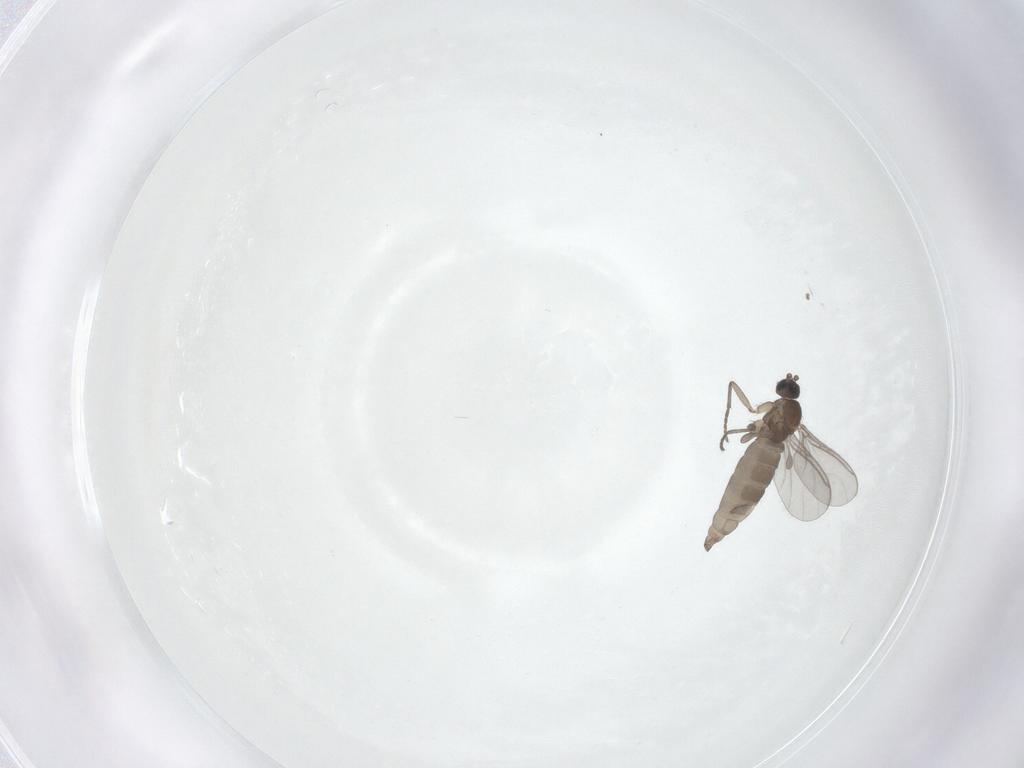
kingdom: Animalia
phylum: Arthropoda
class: Insecta
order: Diptera
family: Sciaridae
